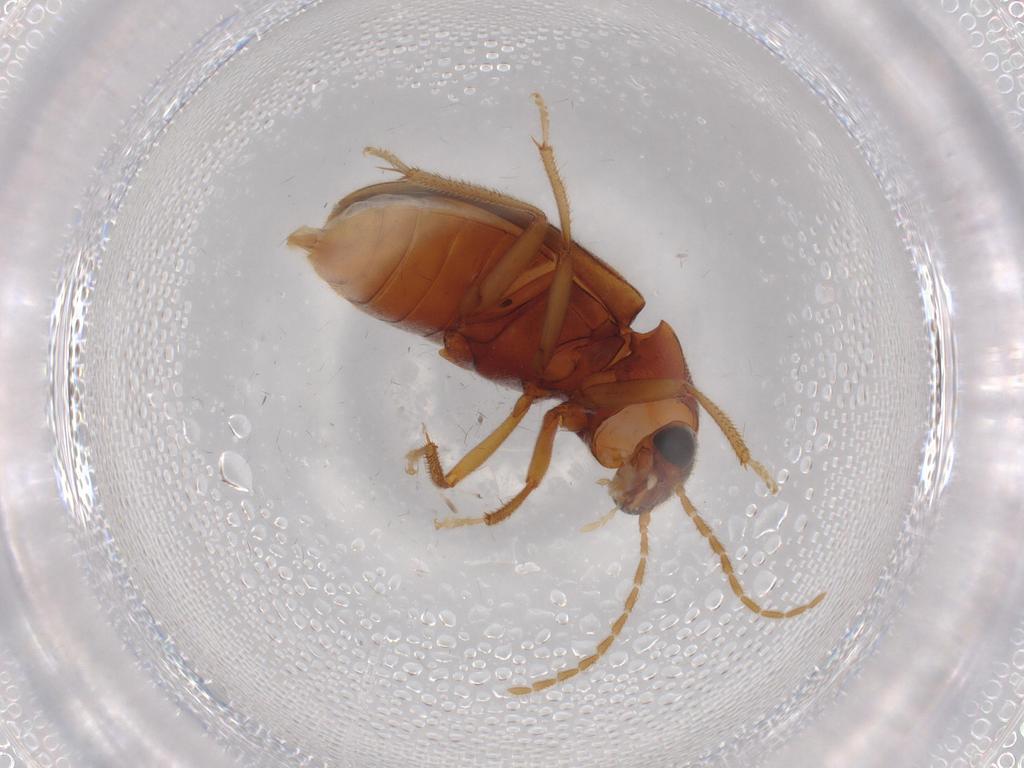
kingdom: Animalia
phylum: Arthropoda
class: Insecta
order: Coleoptera
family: Ptilodactylidae
